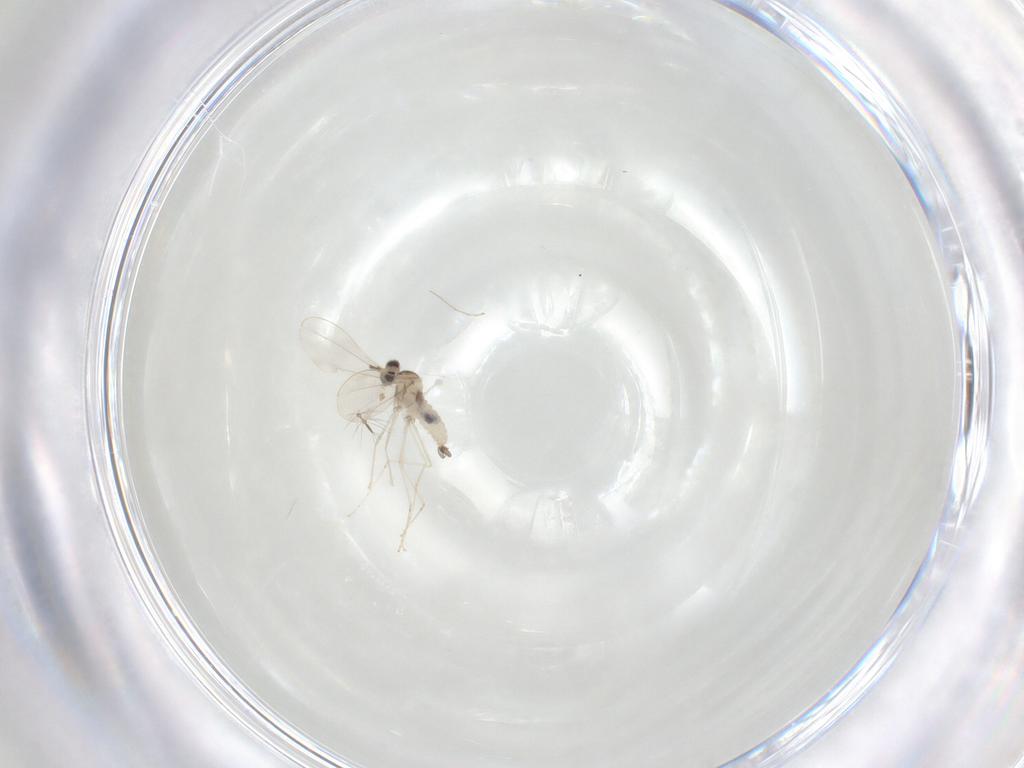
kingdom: Animalia
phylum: Arthropoda
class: Insecta
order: Diptera
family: Cecidomyiidae
